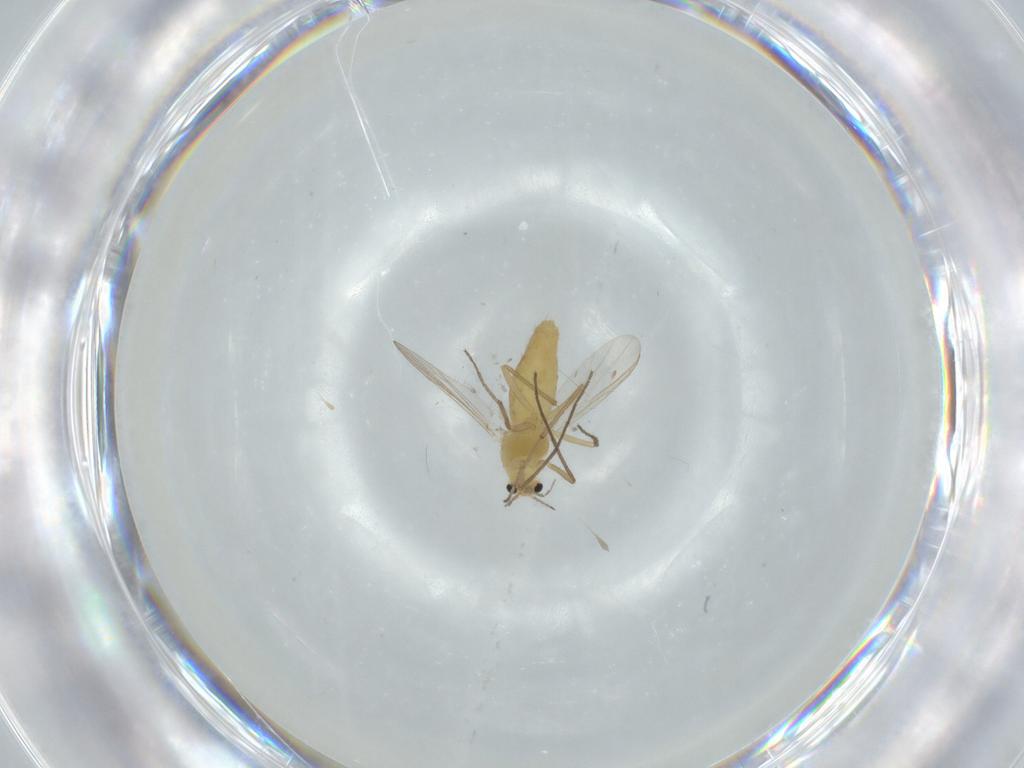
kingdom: Animalia
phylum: Arthropoda
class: Insecta
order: Diptera
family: Chironomidae
